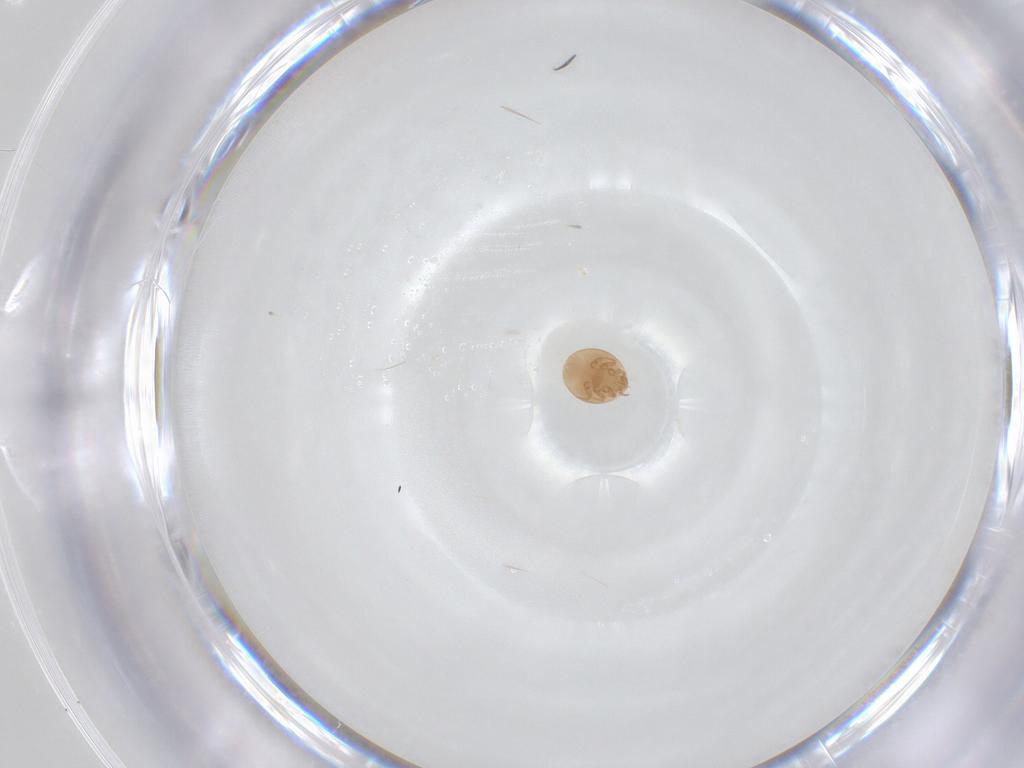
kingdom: Animalia
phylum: Arthropoda
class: Arachnida
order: Mesostigmata
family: Trematuridae
